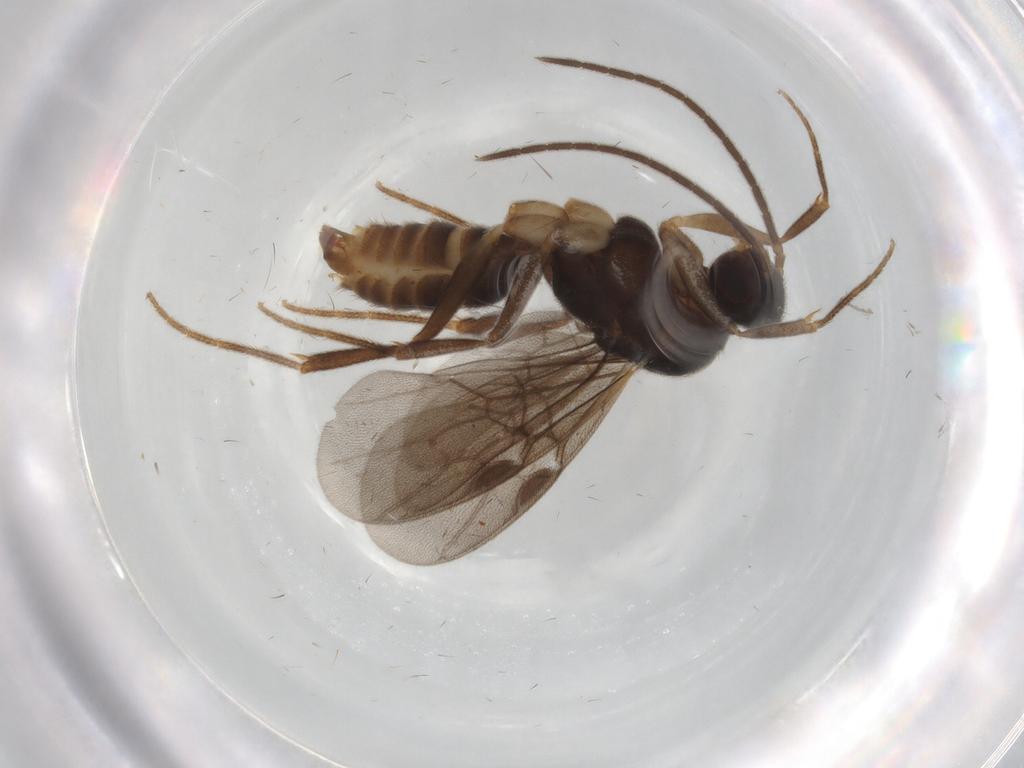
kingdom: Animalia
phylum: Arthropoda
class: Insecta
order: Hymenoptera
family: Formicidae
